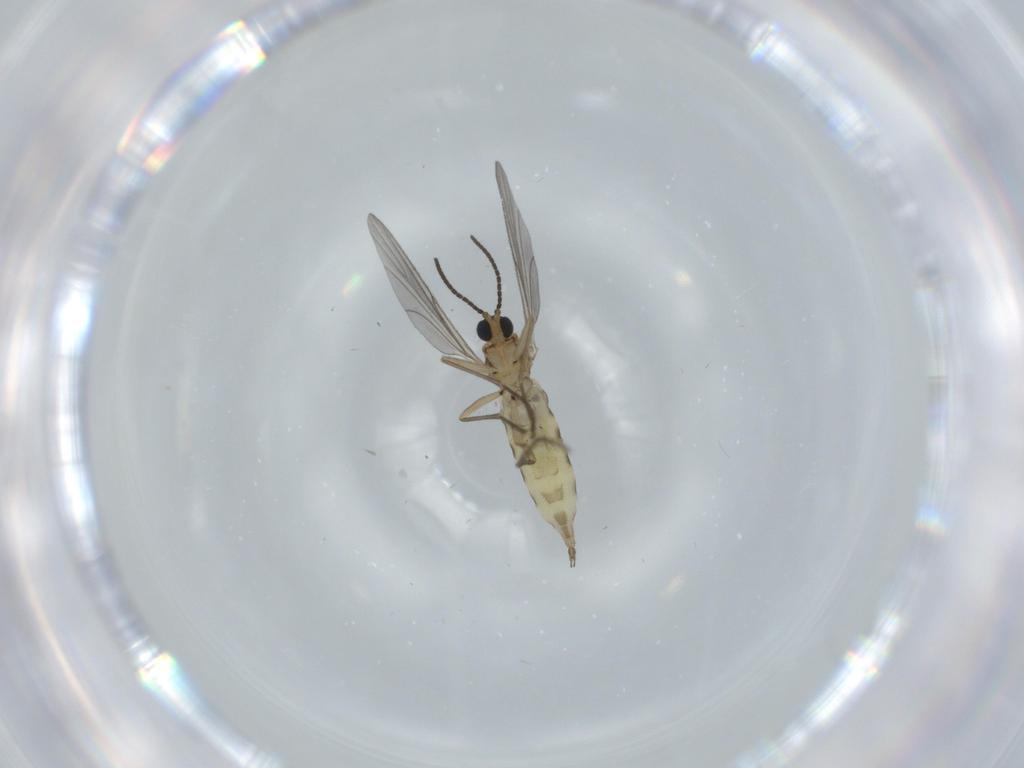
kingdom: Animalia
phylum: Arthropoda
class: Insecta
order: Diptera
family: Sciaridae
